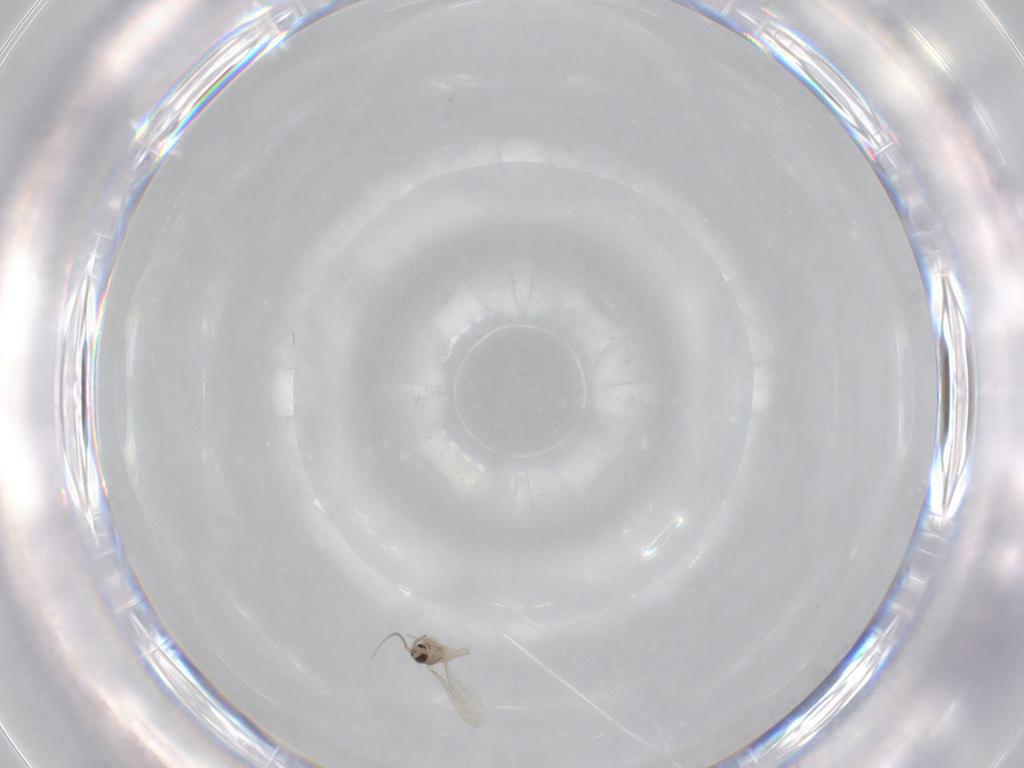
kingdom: Animalia
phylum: Arthropoda
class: Insecta
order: Diptera
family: Cecidomyiidae
